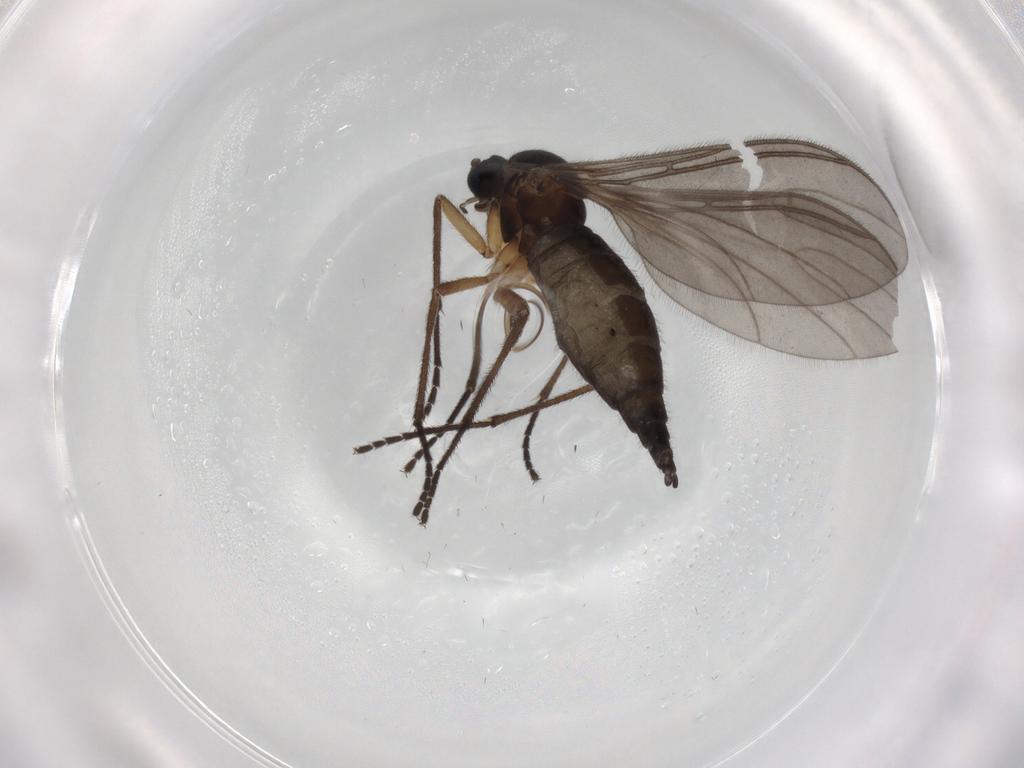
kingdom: Animalia
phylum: Arthropoda
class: Insecta
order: Diptera
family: Sciaridae
